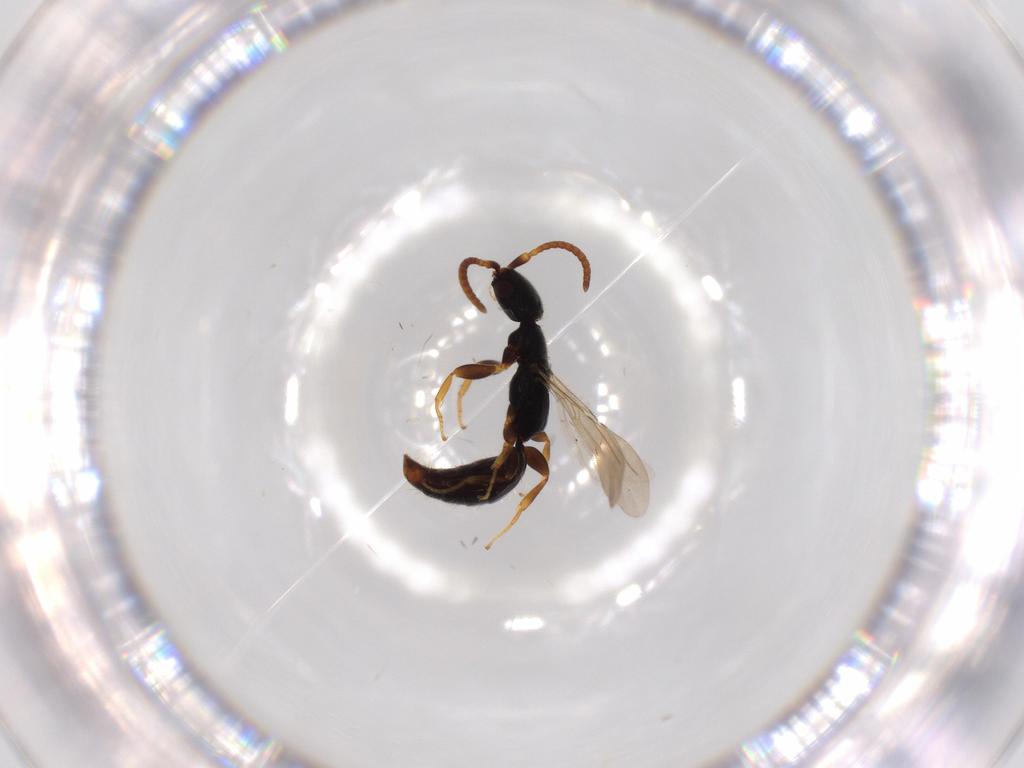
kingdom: Animalia
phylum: Arthropoda
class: Insecta
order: Hymenoptera
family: Bethylidae
